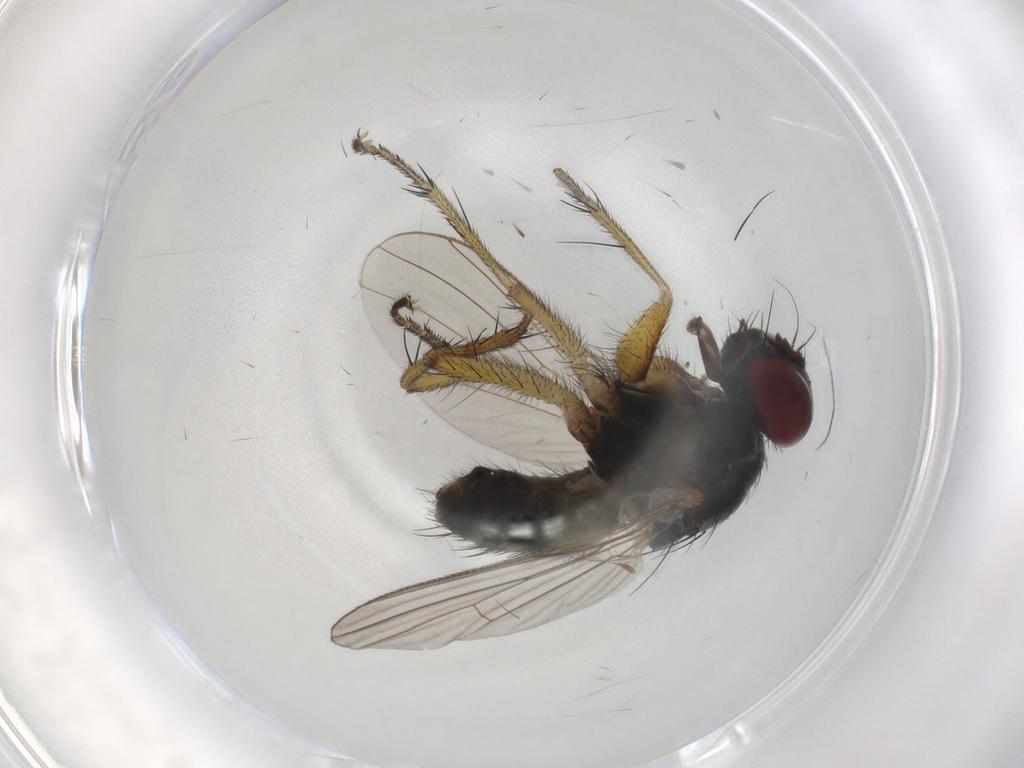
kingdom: Animalia
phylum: Arthropoda
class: Insecta
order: Diptera
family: Muscidae
